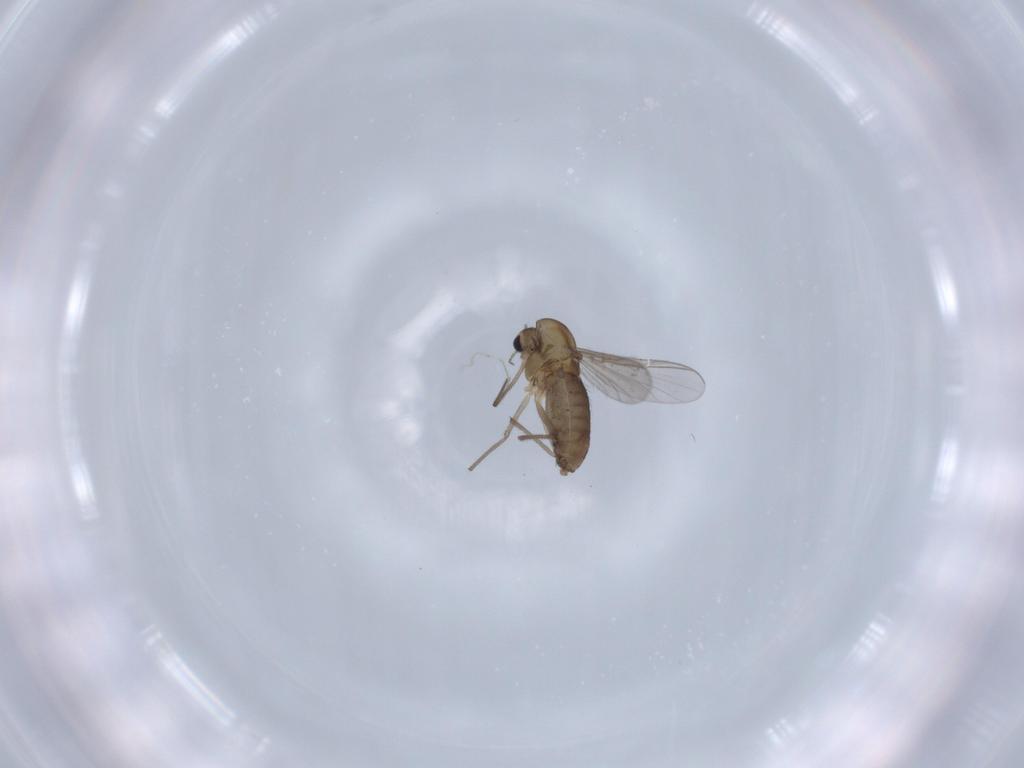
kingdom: Animalia
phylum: Arthropoda
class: Insecta
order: Diptera
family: Chironomidae
